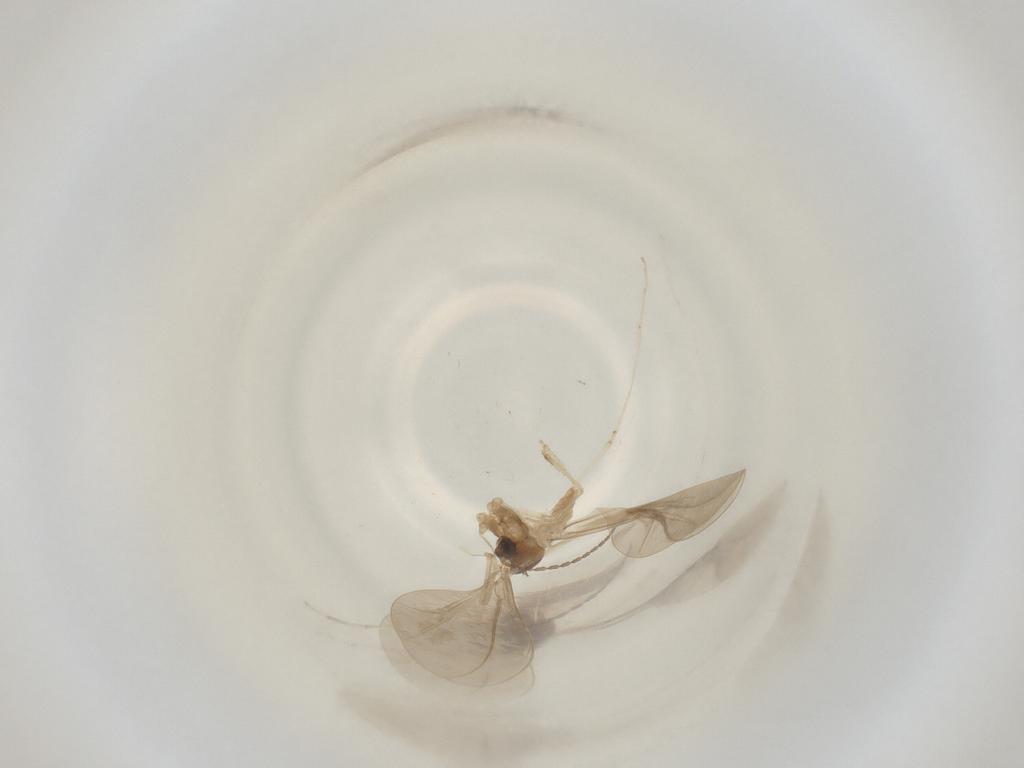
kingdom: Animalia
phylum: Arthropoda
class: Insecta
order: Diptera
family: Cecidomyiidae
